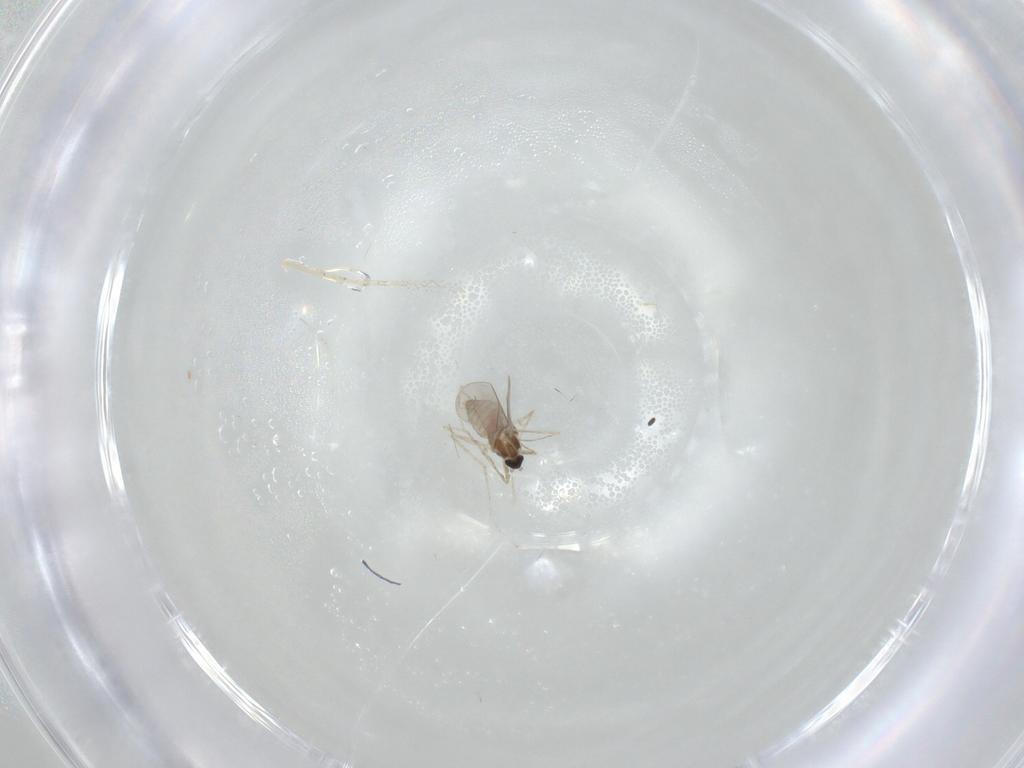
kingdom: Animalia
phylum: Arthropoda
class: Insecta
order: Diptera
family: Cecidomyiidae
